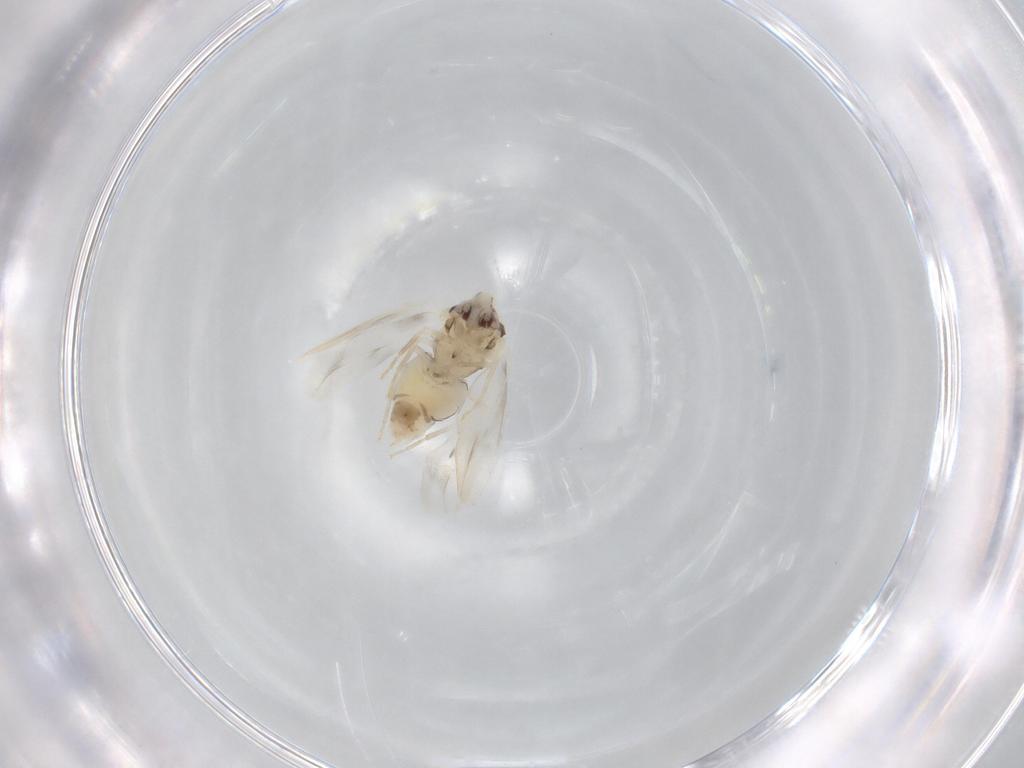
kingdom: Animalia
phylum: Arthropoda
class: Insecta
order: Hemiptera
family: Aleyrodidae
